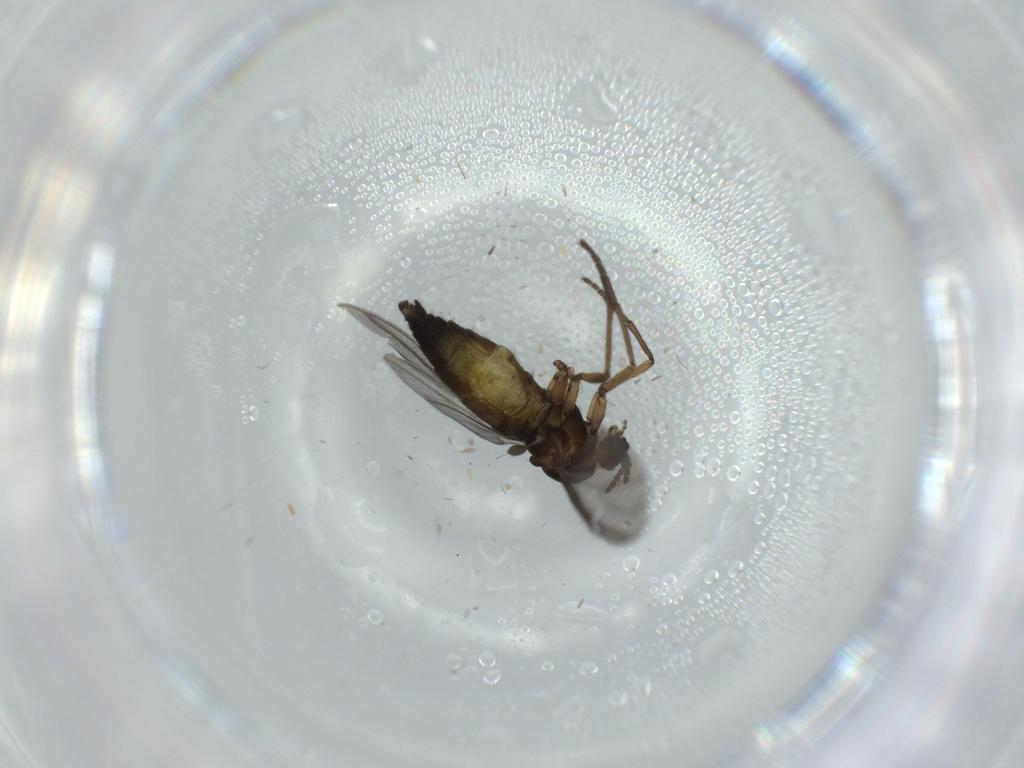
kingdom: Animalia
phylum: Arthropoda
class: Insecta
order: Diptera
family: Sciaridae
